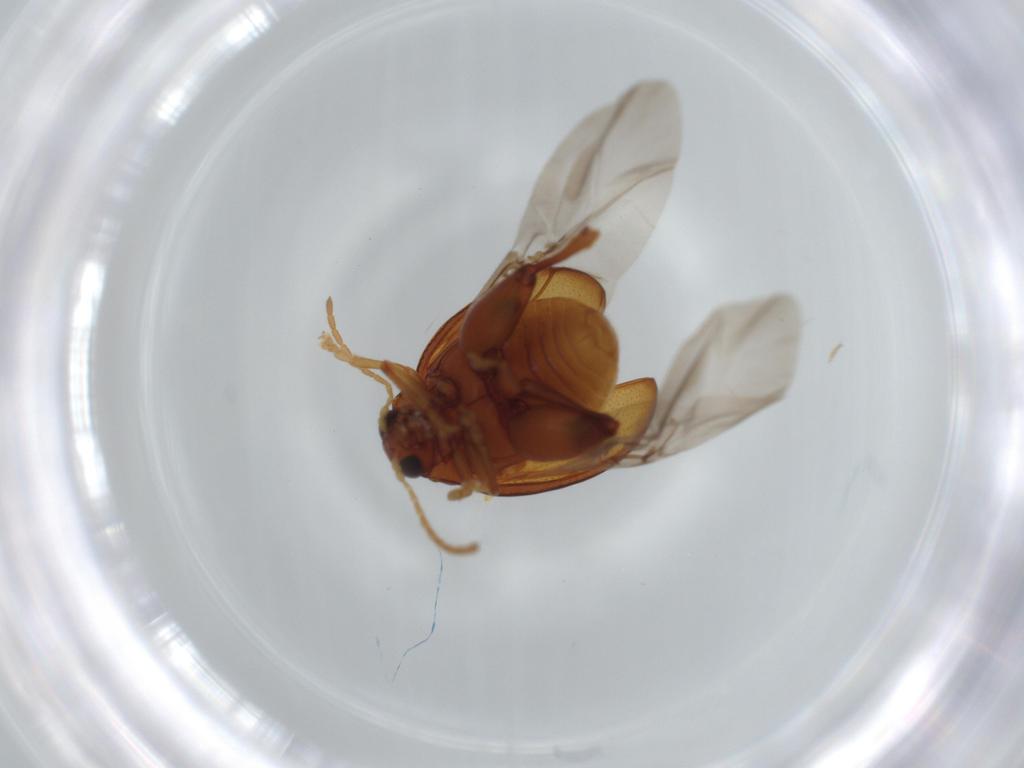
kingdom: Animalia
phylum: Arthropoda
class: Insecta
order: Coleoptera
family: Chrysomelidae
